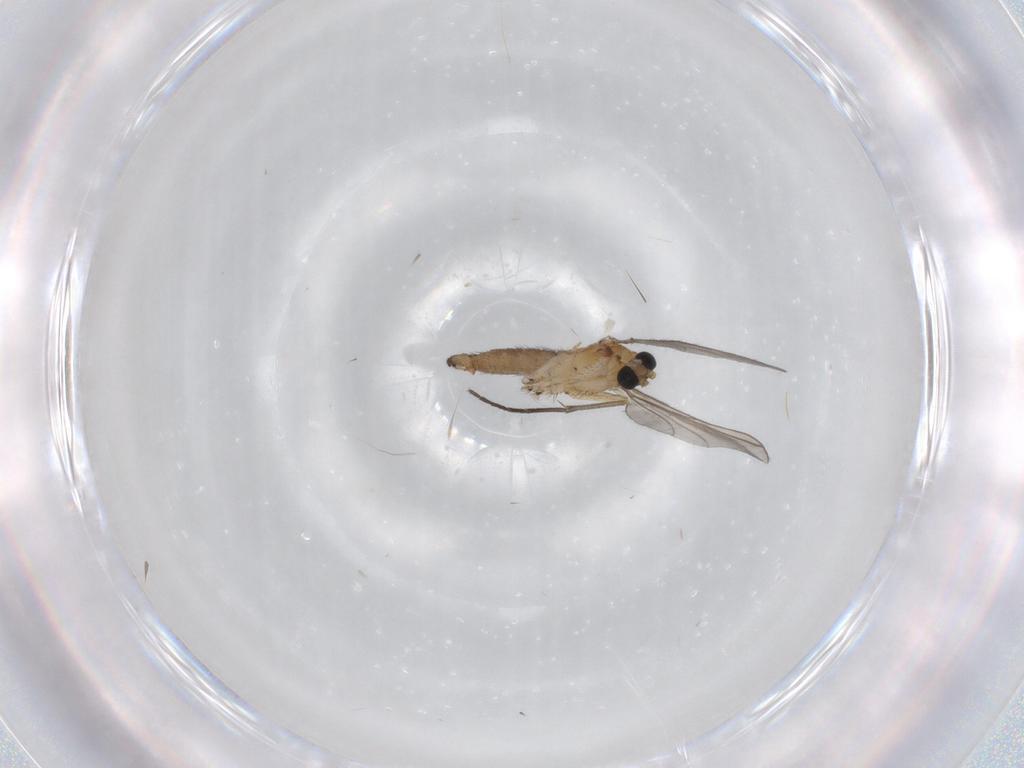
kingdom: Animalia
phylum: Arthropoda
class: Insecta
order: Diptera
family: Sciaridae
